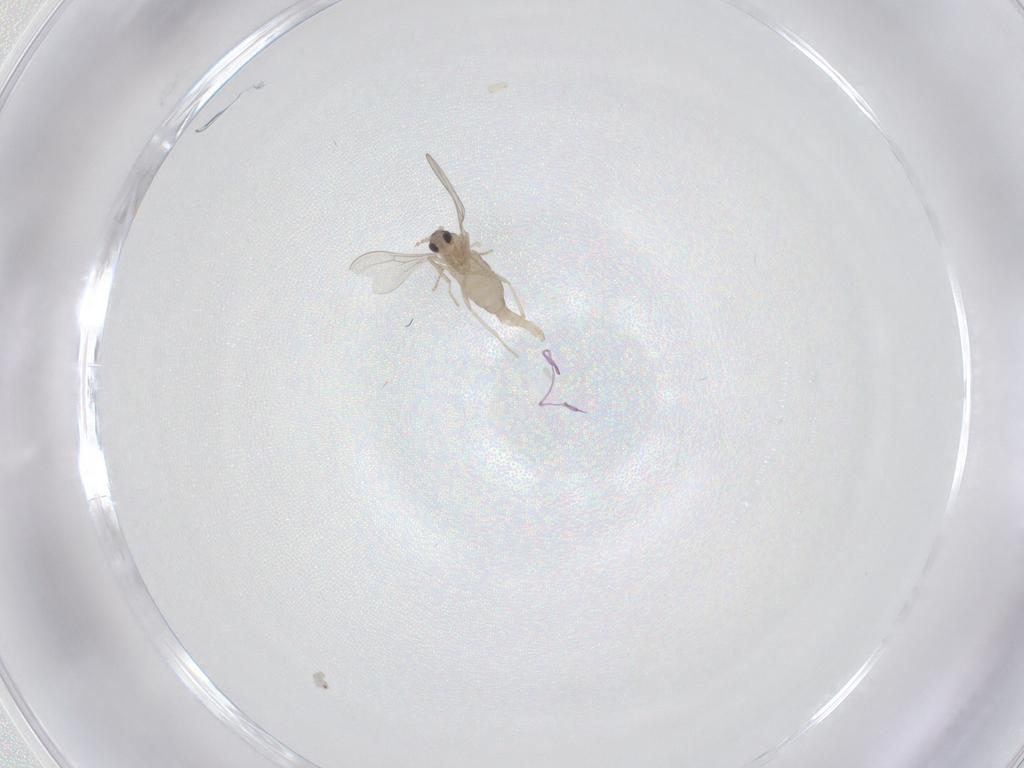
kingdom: Animalia
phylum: Arthropoda
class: Insecta
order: Diptera
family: Cecidomyiidae
